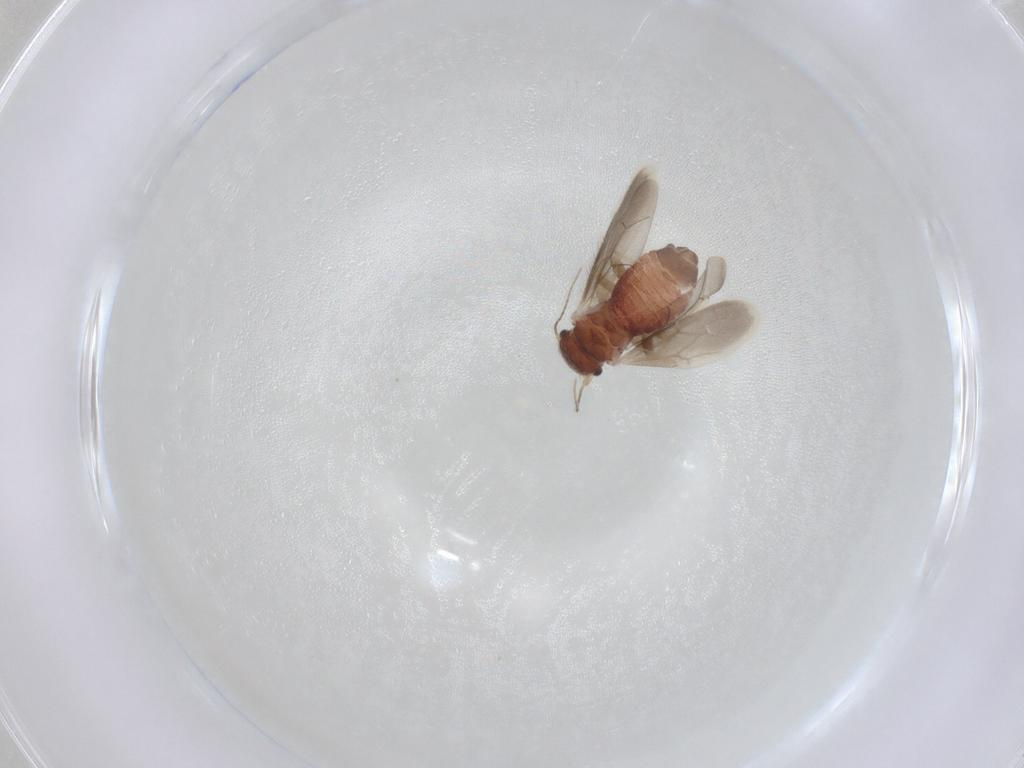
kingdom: Animalia
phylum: Arthropoda
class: Insecta
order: Psocodea
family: Archipsocidae
